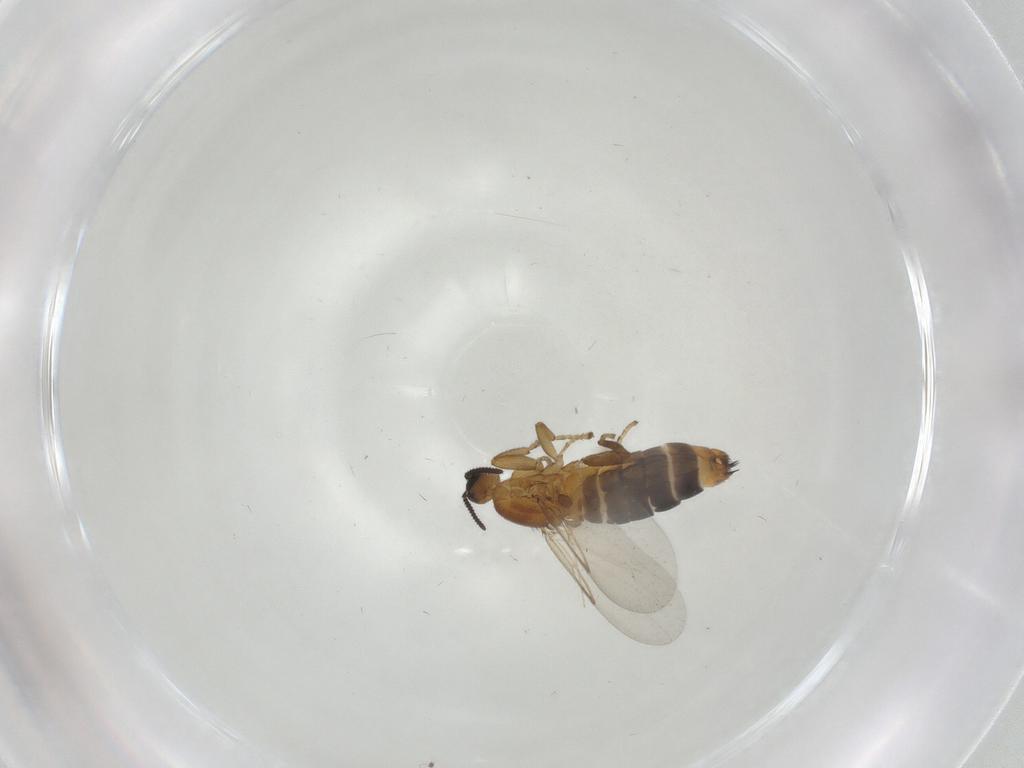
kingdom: Animalia
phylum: Arthropoda
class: Insecta
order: Diptera
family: Scatopsidae
